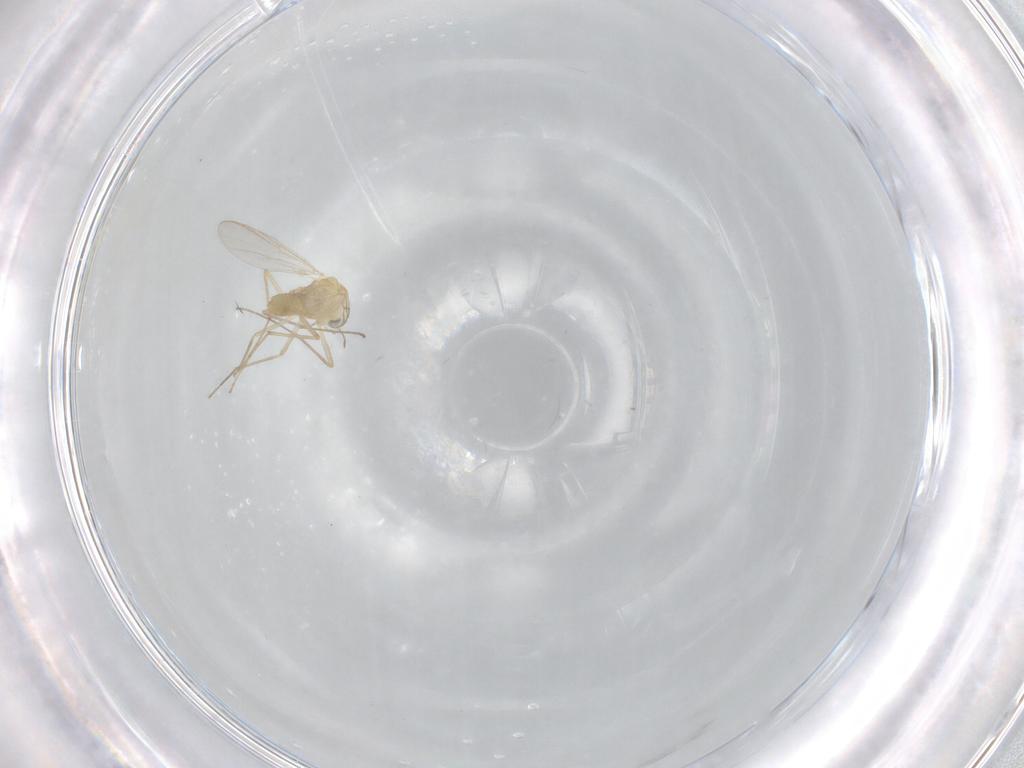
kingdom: Animalia
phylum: Arthropoda
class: Insecta
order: Diptera
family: Chironomidae
